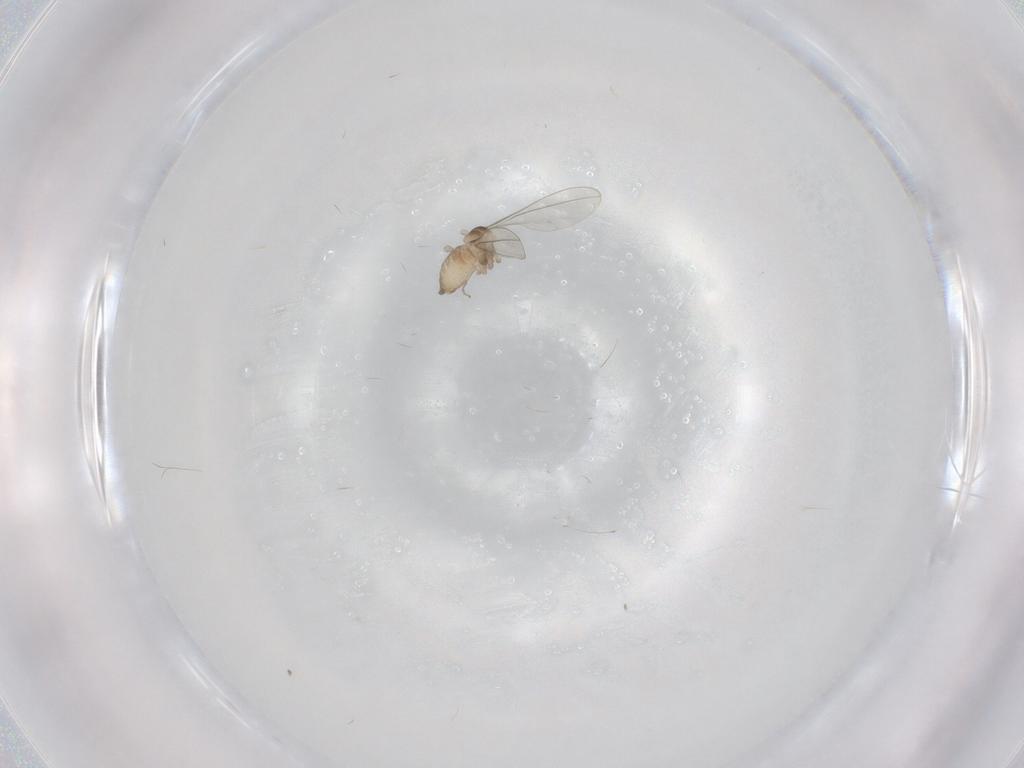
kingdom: Animalia
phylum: Arthropoda
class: Insecta
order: Diptera
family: Cecidomyiidae
